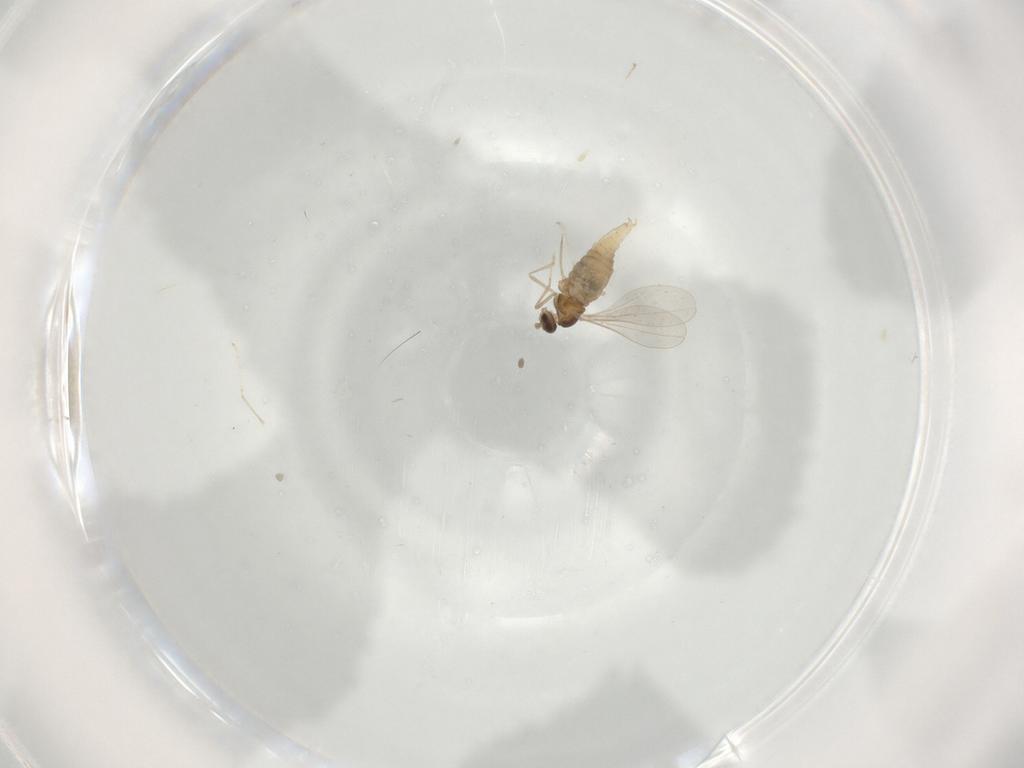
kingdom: Animalia
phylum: Arthropoda
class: Insecta
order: Diptera
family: Cecidomyiidae
